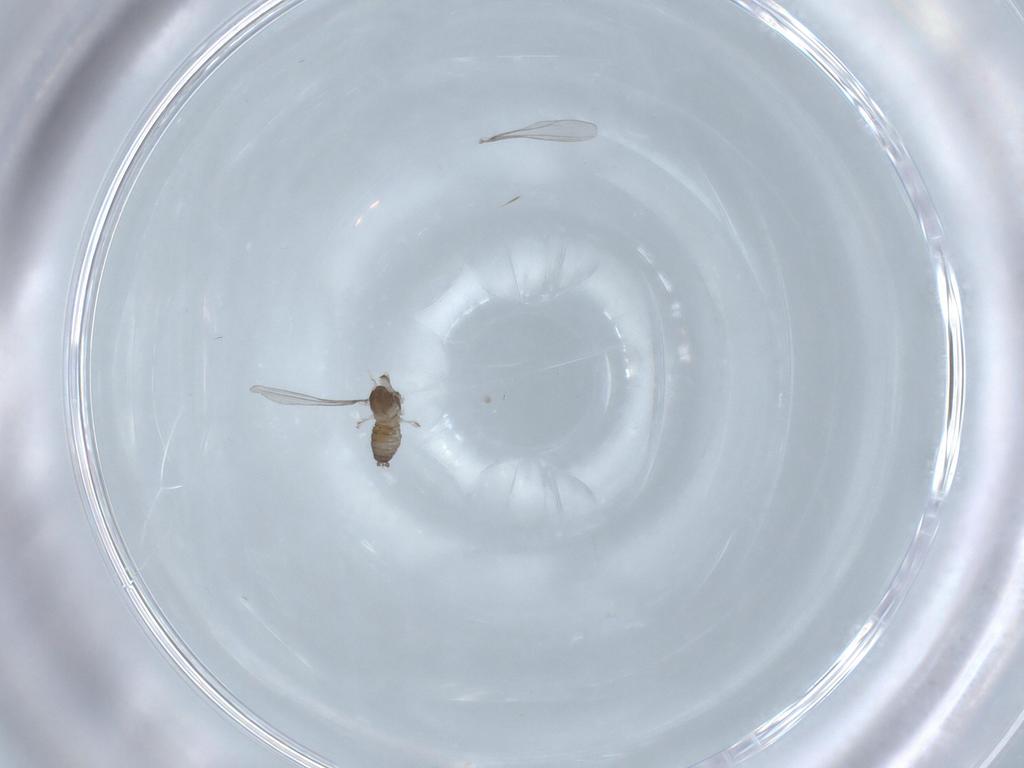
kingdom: Animalia
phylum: Arthropoda
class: Insecta
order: Diptera
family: Cecidomyiidae
